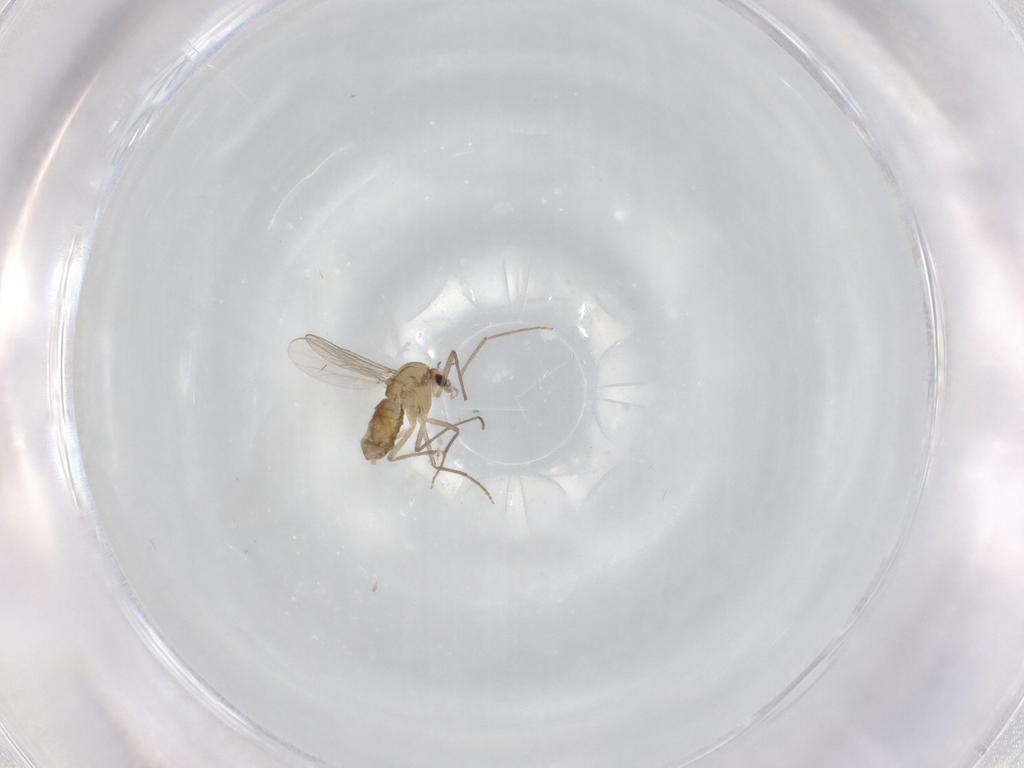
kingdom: Animalia
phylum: Arthropoda
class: Insecta
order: Diptera
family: Chironomidae
